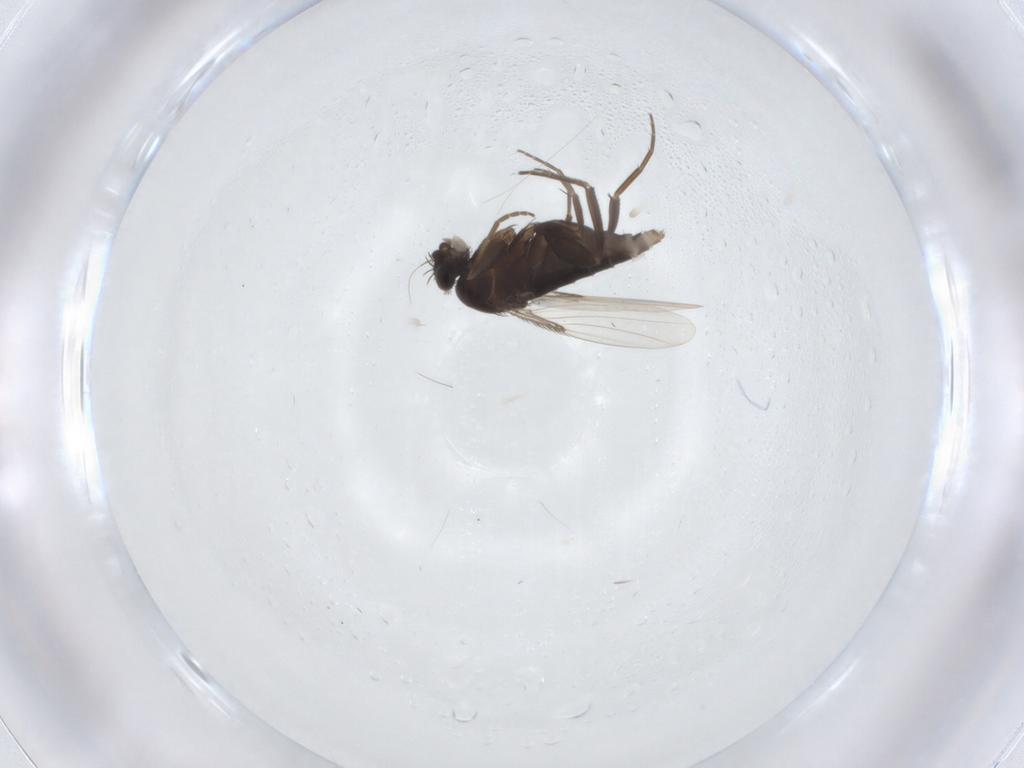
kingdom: Animalia
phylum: Arthropoda
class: Insecta
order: Diptera
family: Phoridae
